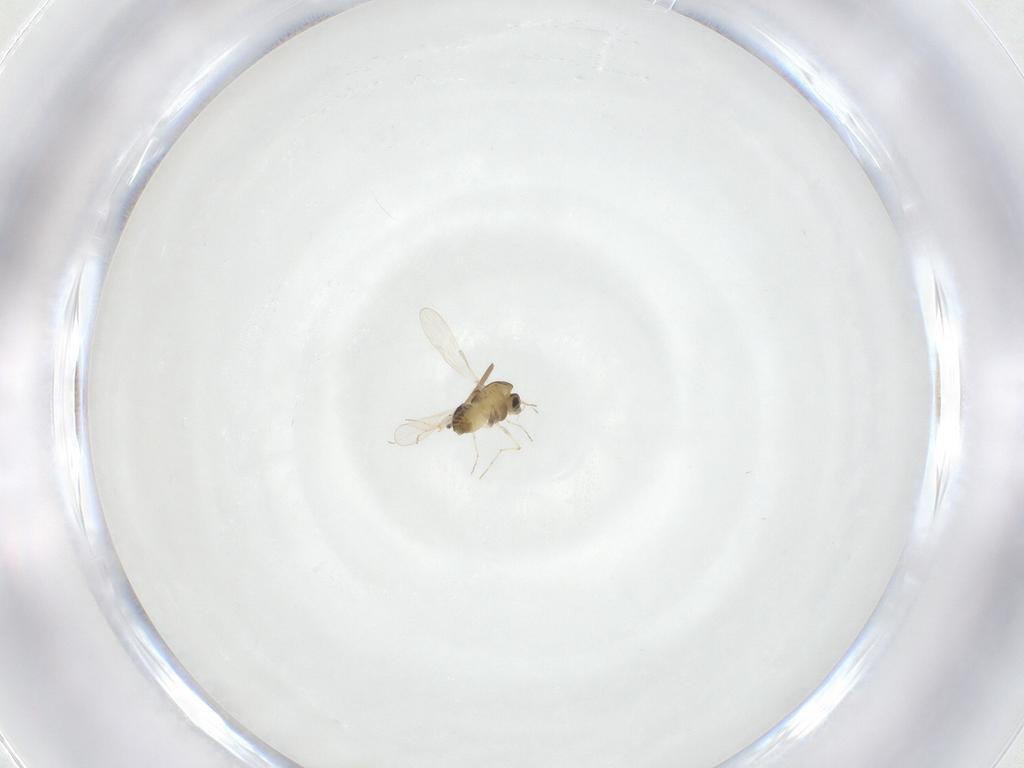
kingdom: Animalia
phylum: Arthropoda
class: Insecta
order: Diptera
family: Chironomidae
